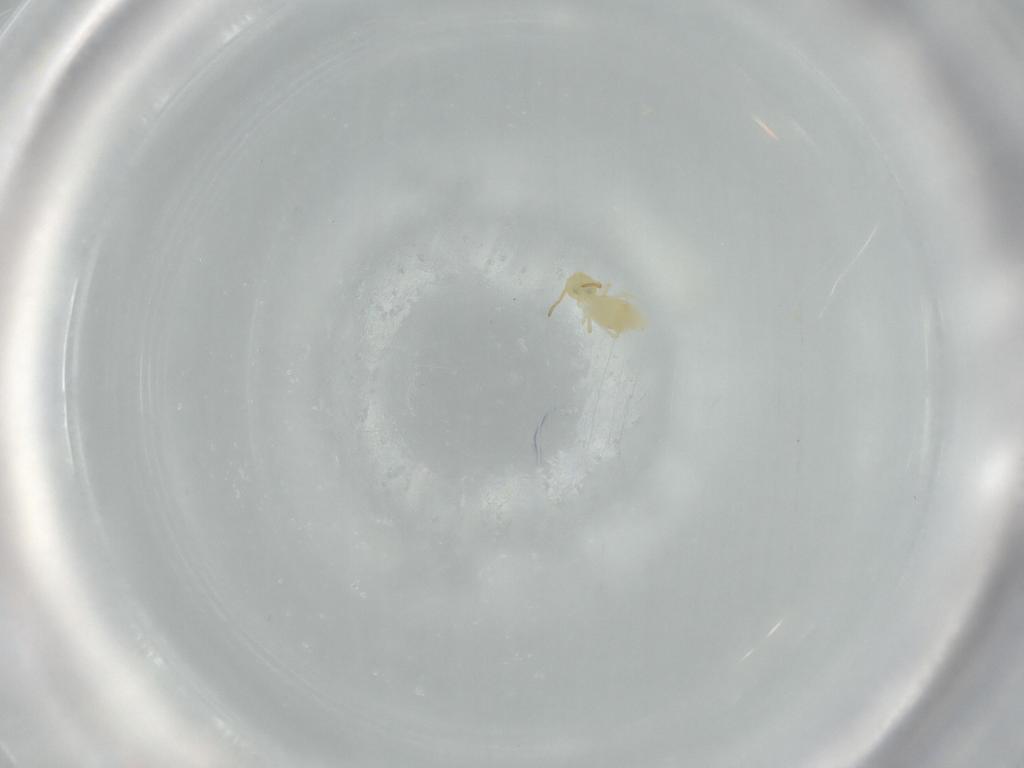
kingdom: Animalia
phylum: Arthropoda
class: Collembola
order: Symphypleona
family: Bourletiellidae
